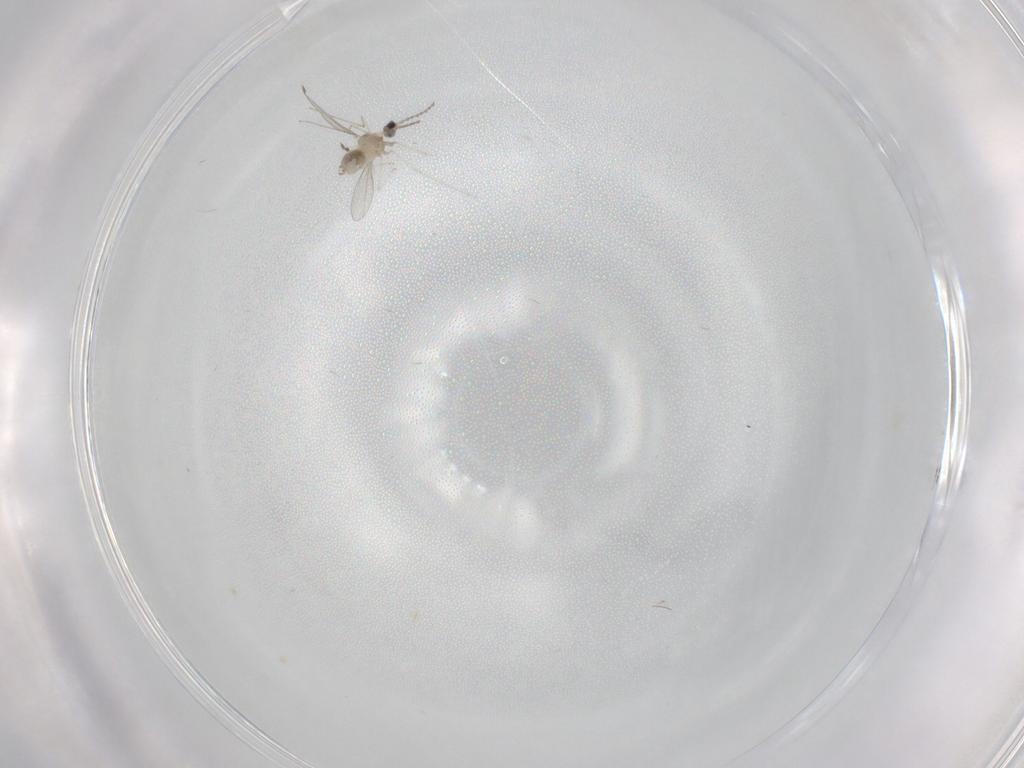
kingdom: Animalia
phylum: Arthropoda
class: Insecta
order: Diptera
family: Cecidomyiidae
